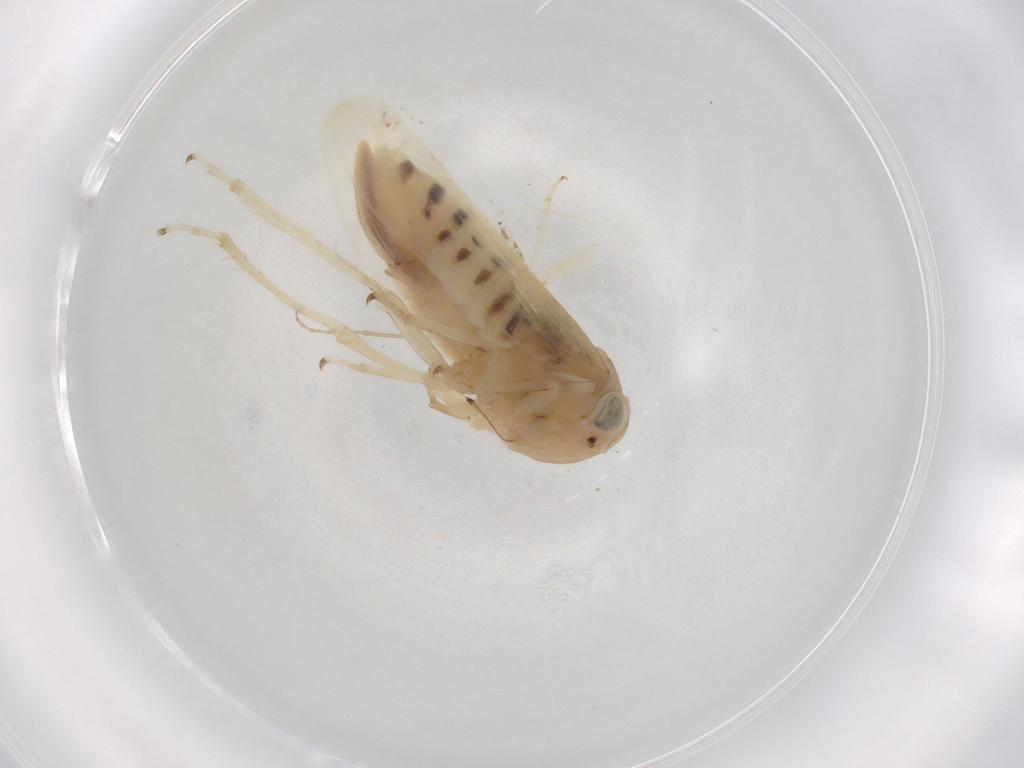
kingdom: Animalia
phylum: Arthropoda
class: Insecta
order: Hemiptera
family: Cicadellidae
